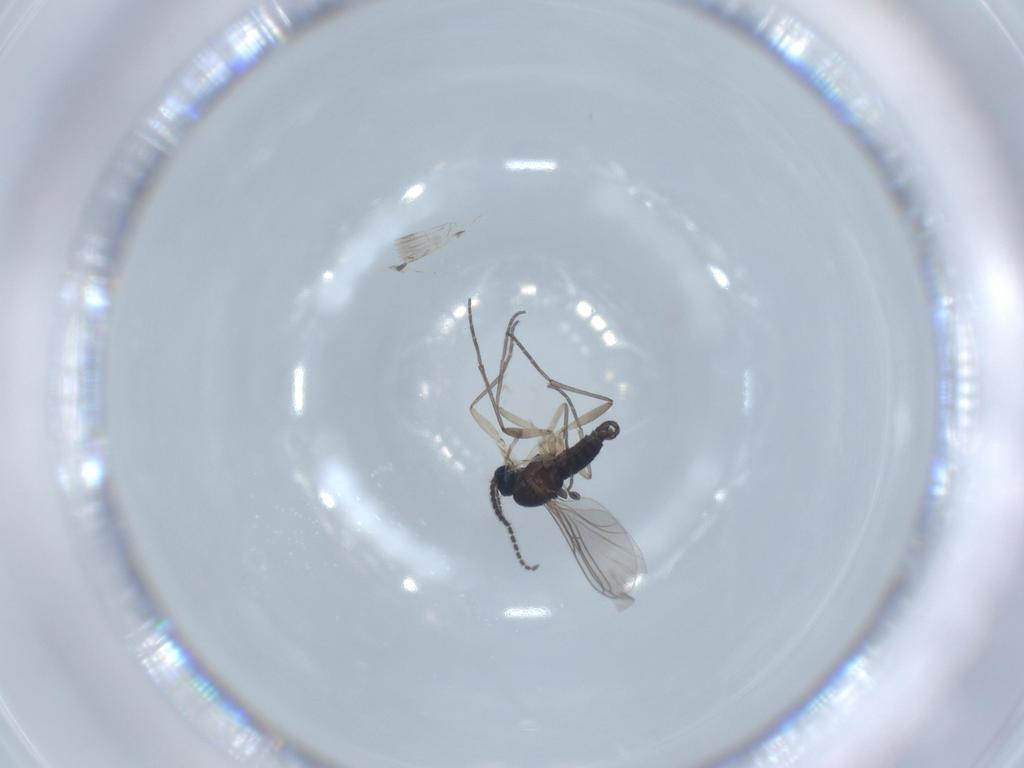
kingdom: Animalia
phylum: Arthropoda
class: Insecta
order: Diptera
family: Sciaridae
